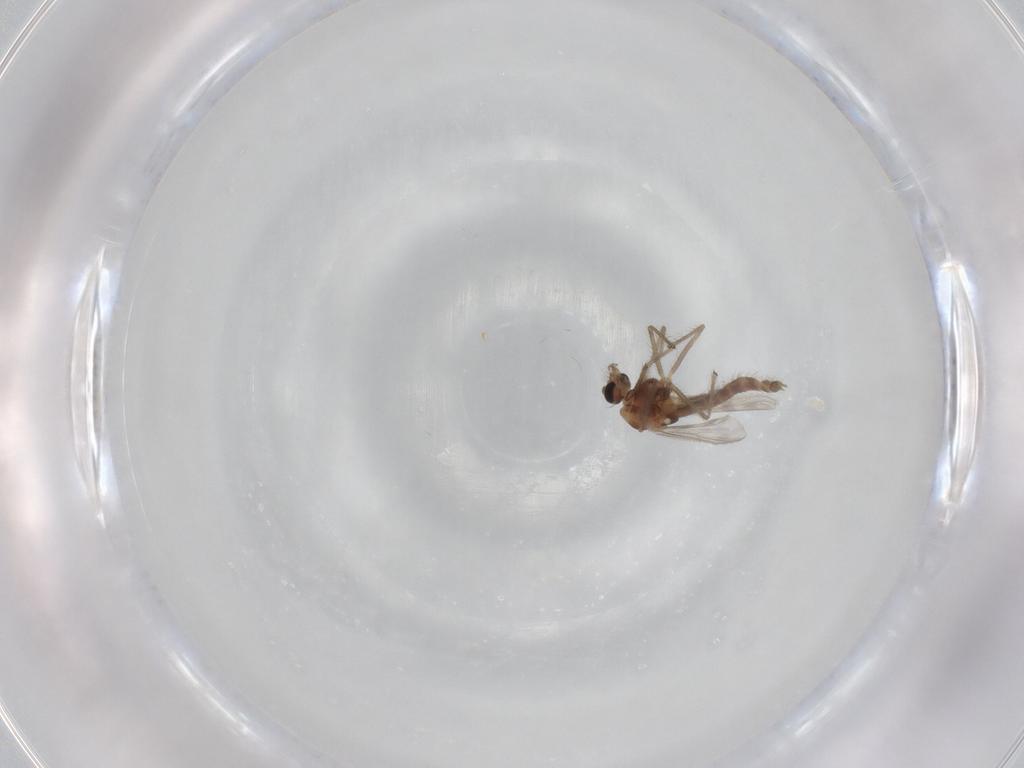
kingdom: Animalia
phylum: Arthropoda
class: Insecta
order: Diptera
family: Chironomidae
